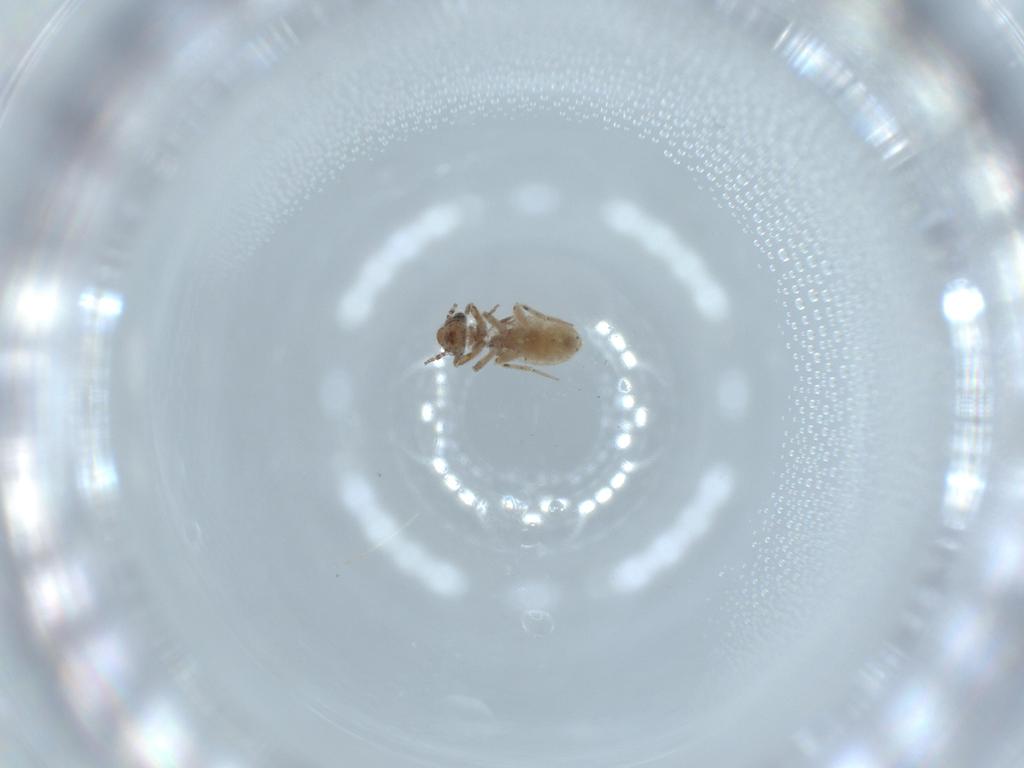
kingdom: Animalia
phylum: Arthropoda
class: Insecta
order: Psocodea
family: Lepidopsocidae
